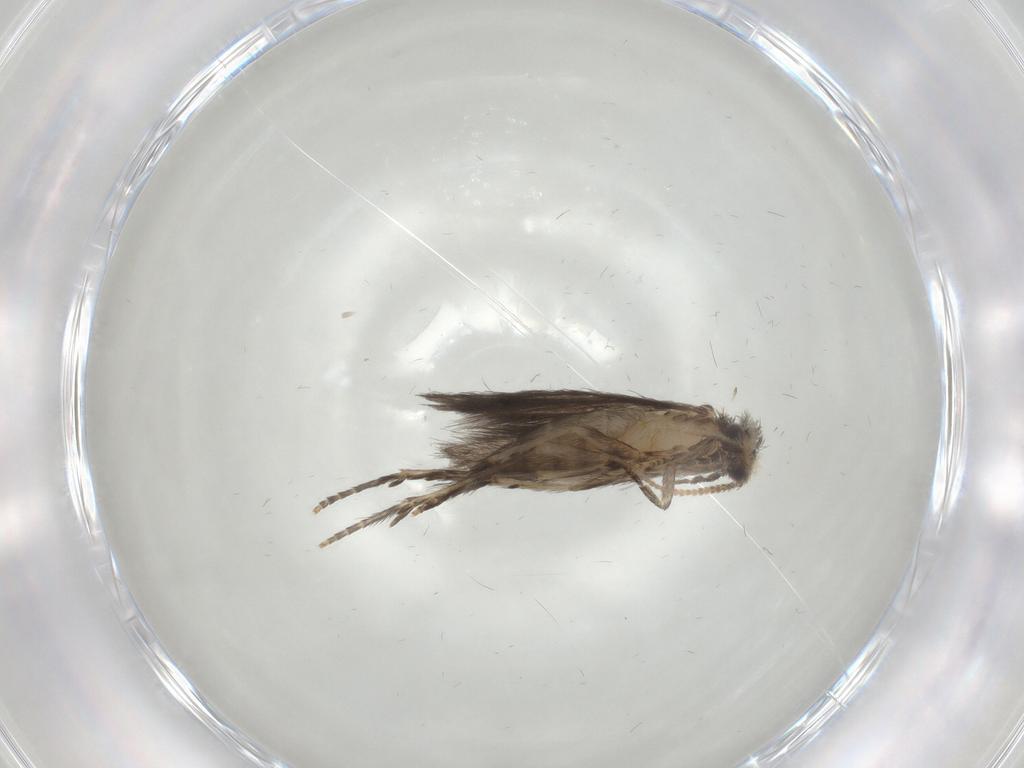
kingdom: Animalia
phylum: Arthropoda
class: Insecta
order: Trichoptera
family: Hydroptilidae
